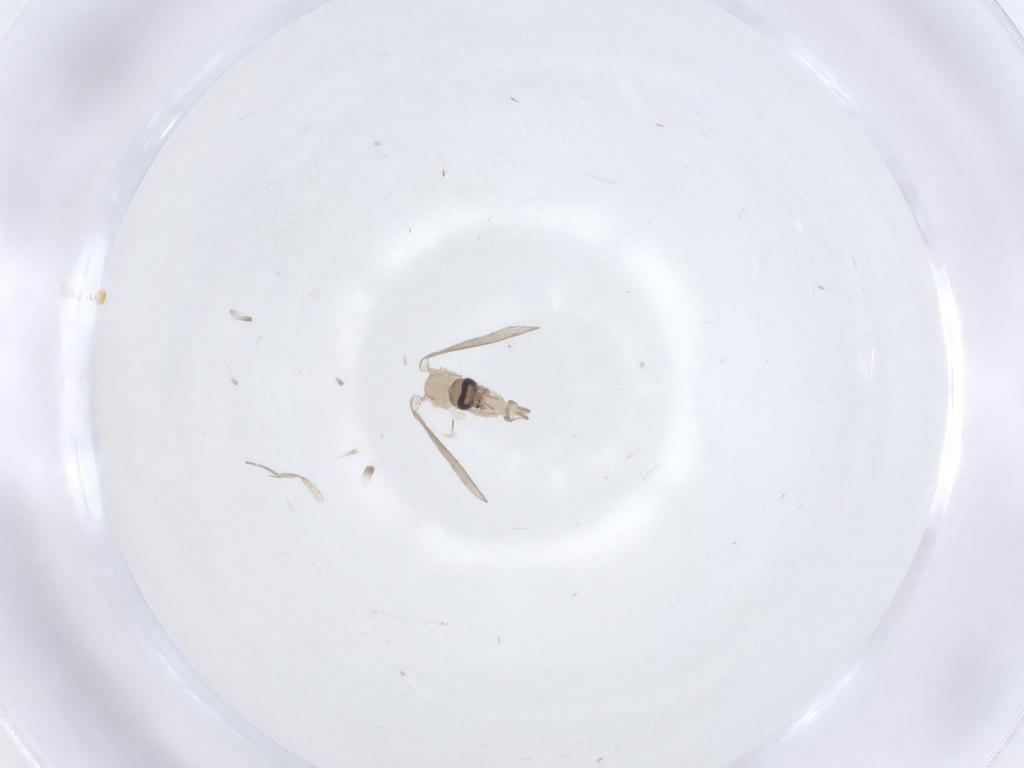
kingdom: Animalia
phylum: Arthropoda
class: Insecta
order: Diptera
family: Psychodidae
